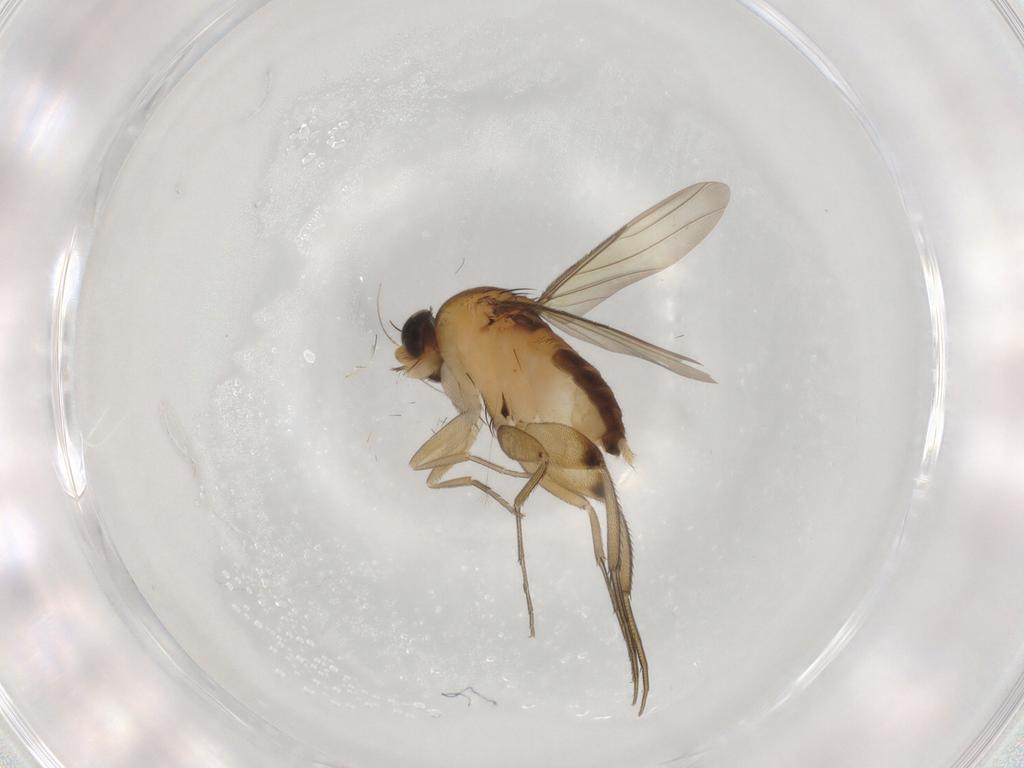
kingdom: Animalia
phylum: Arthropoda
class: Insecta
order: Diptera
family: Phoridae
